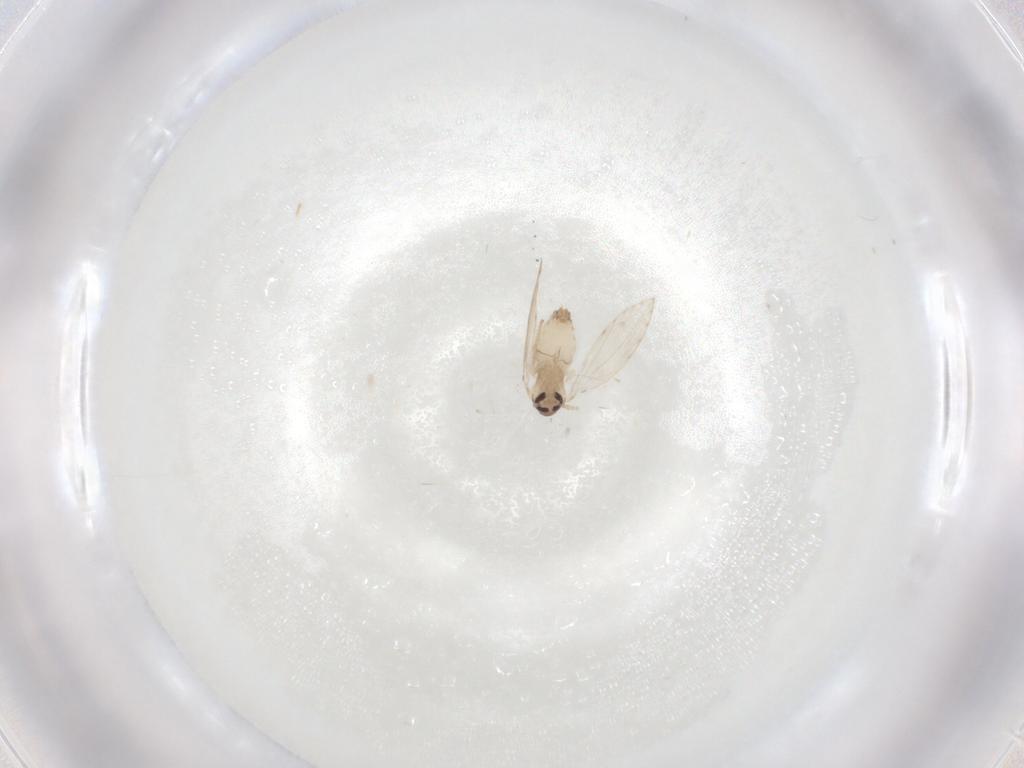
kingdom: Animalia
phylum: Arthropoda
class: Insecta
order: Diptera
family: Psychodidae
